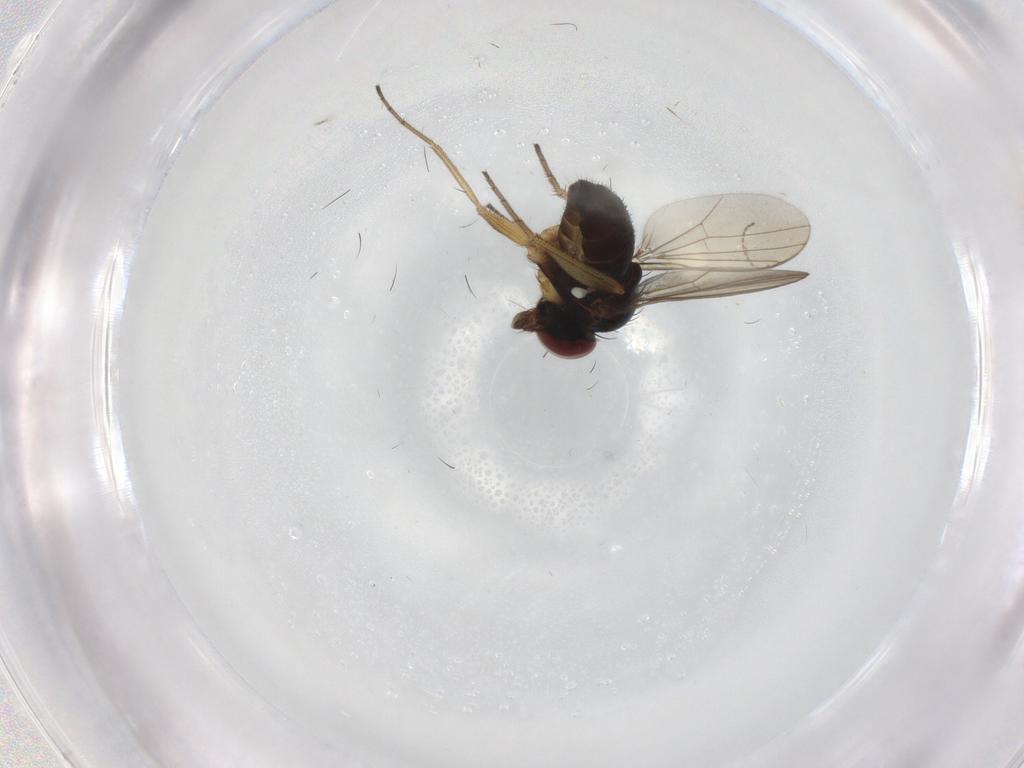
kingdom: Animalia
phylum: Arthropoda
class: Insecta
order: Diptera
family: Dolichopodidae
